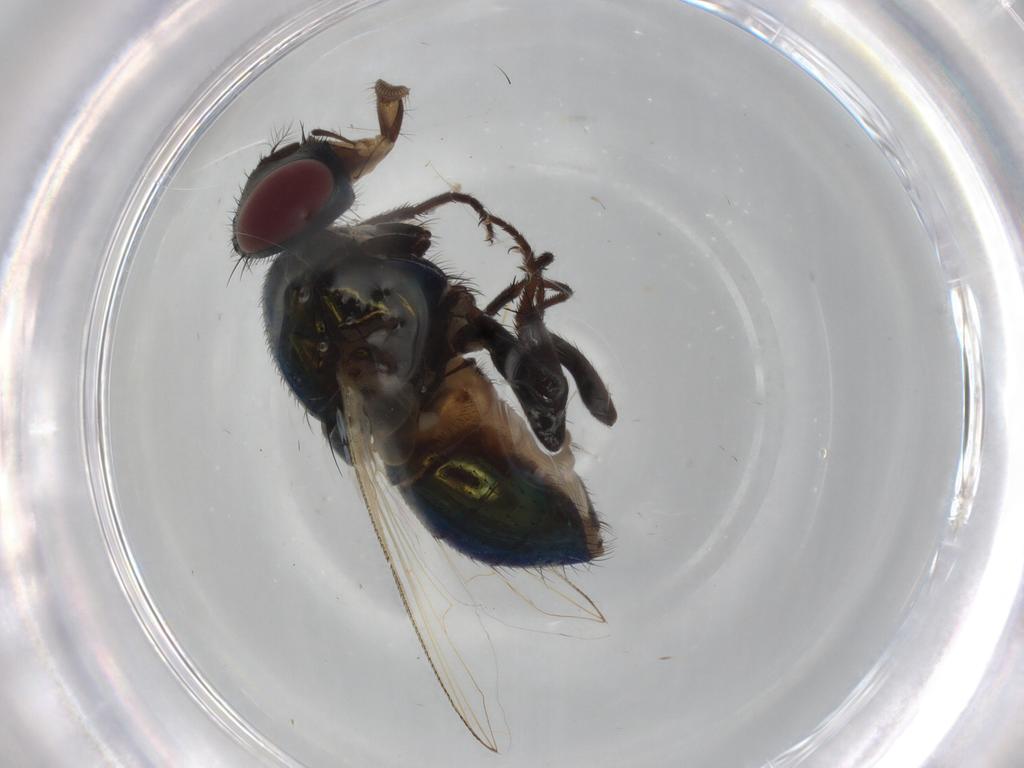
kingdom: Animalia
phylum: Arthropoda
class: Insecta
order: Diptera
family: Muscidae
